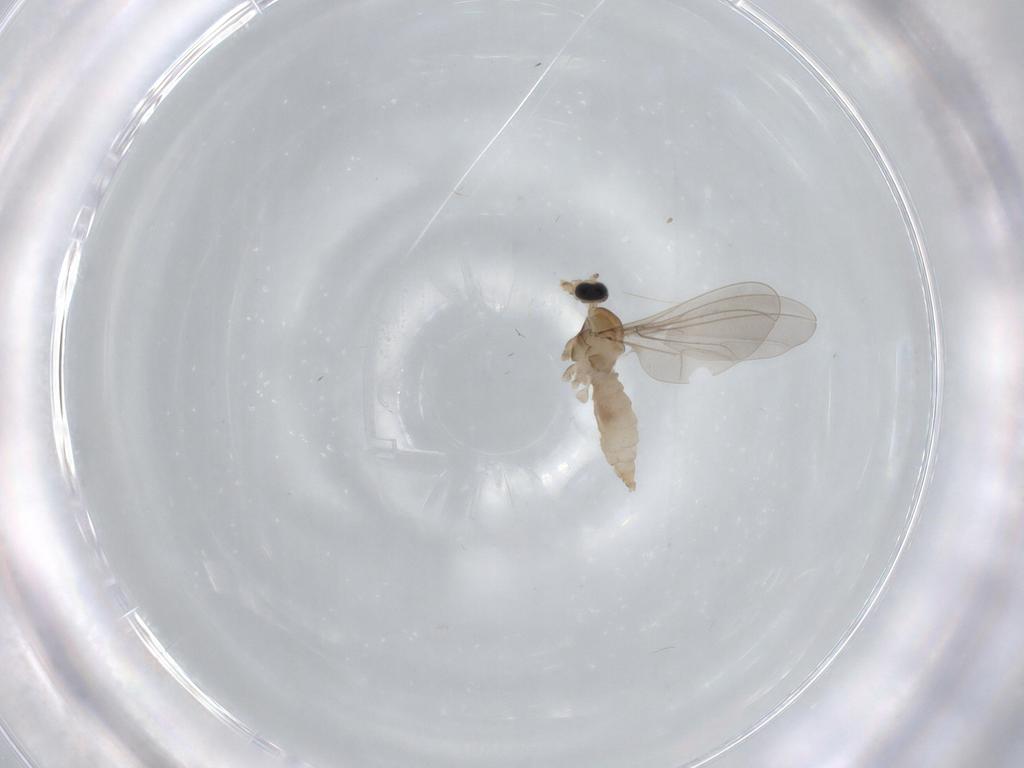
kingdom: Animalia
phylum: Arthropoda
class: Insecta
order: Diptera
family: Cecidomyiidae
